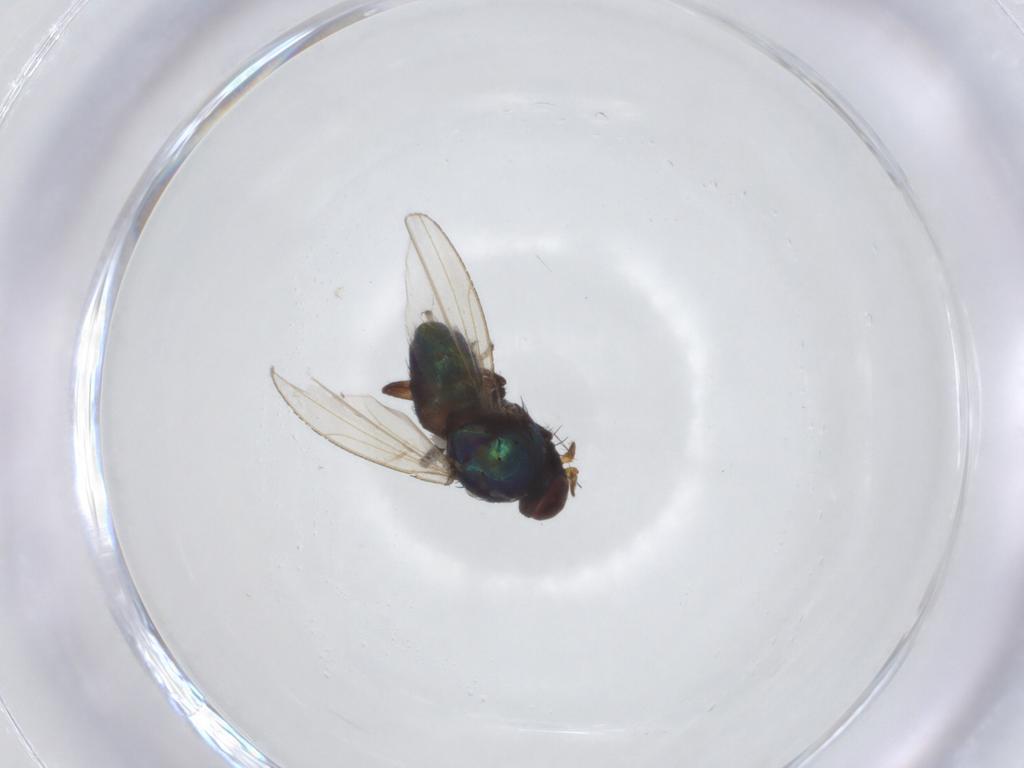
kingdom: Animalia
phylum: Arthropoda
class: Insecta
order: Diptera
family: Ephydridae
